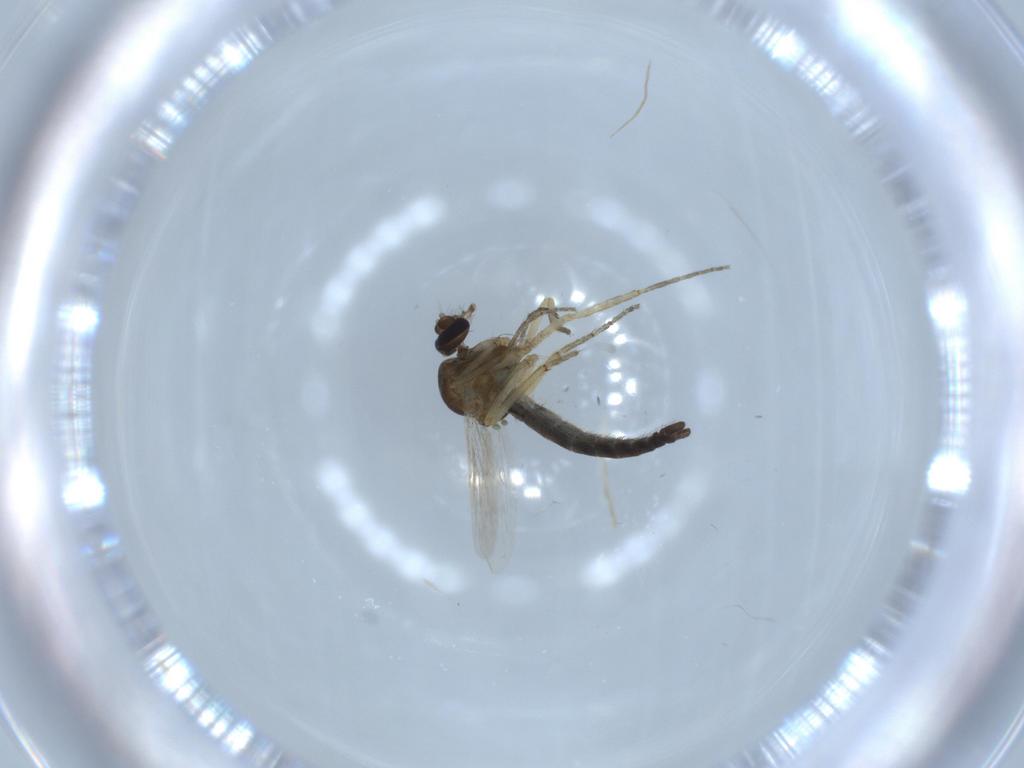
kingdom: Animalia
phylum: Arthropoda
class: Insecta
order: Diptera
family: Ceratopogonidae
